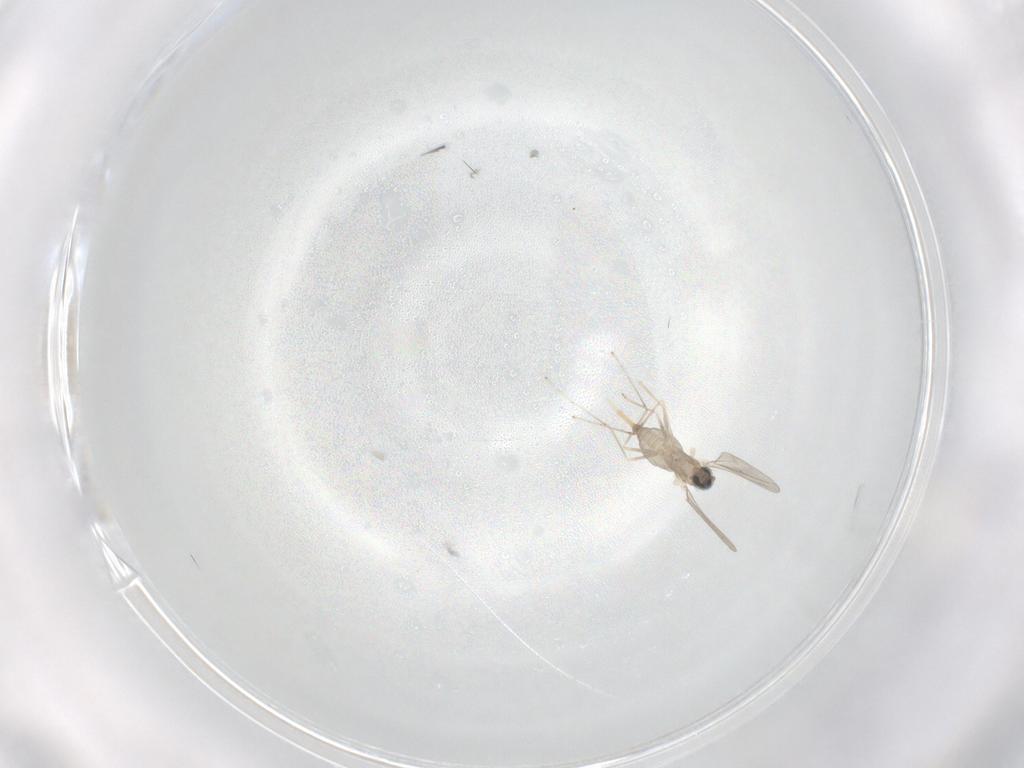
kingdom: Animalia
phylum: Arthropoda
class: Insecta
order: Diptera
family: Cecidomyiidae
